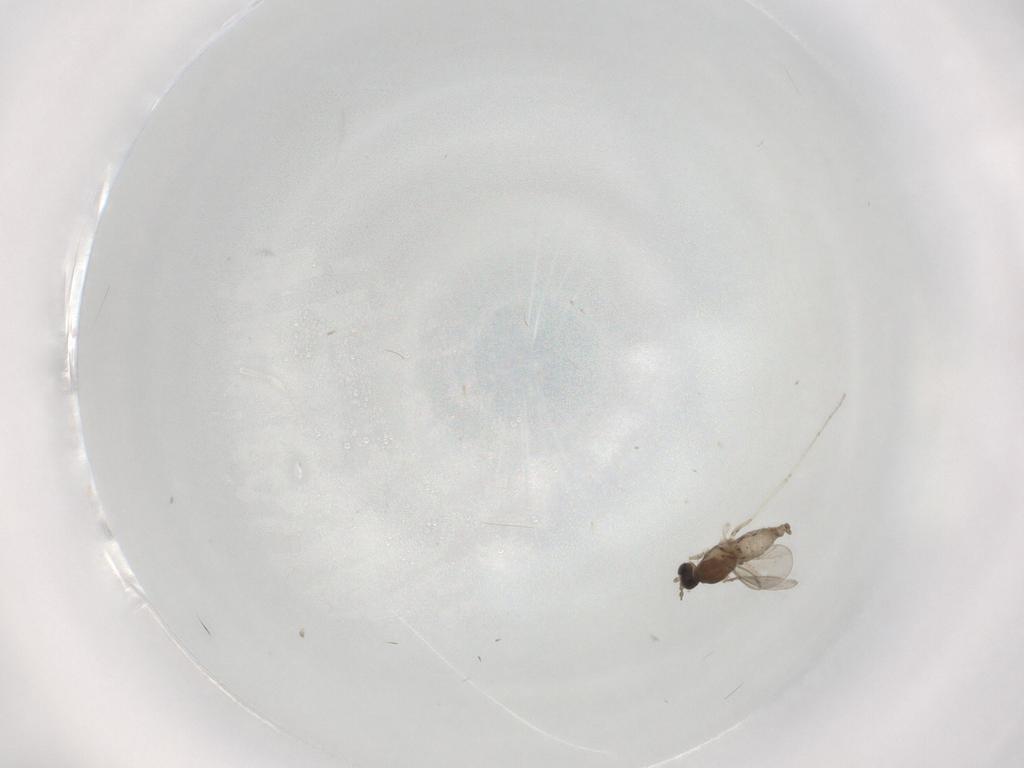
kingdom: Animalia
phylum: Arthropoda
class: Insecta
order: Diptera
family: Cecidomyiidae
